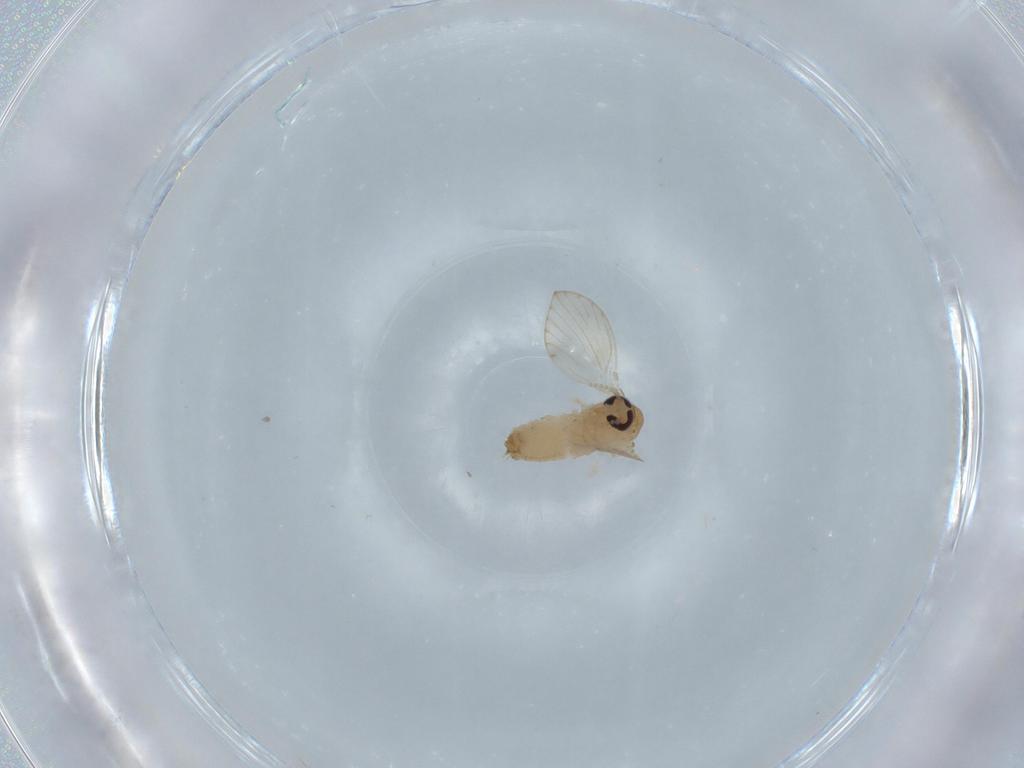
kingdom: Animalia
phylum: Arthropoda
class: Insecta
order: Diptera
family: Psychodidae
